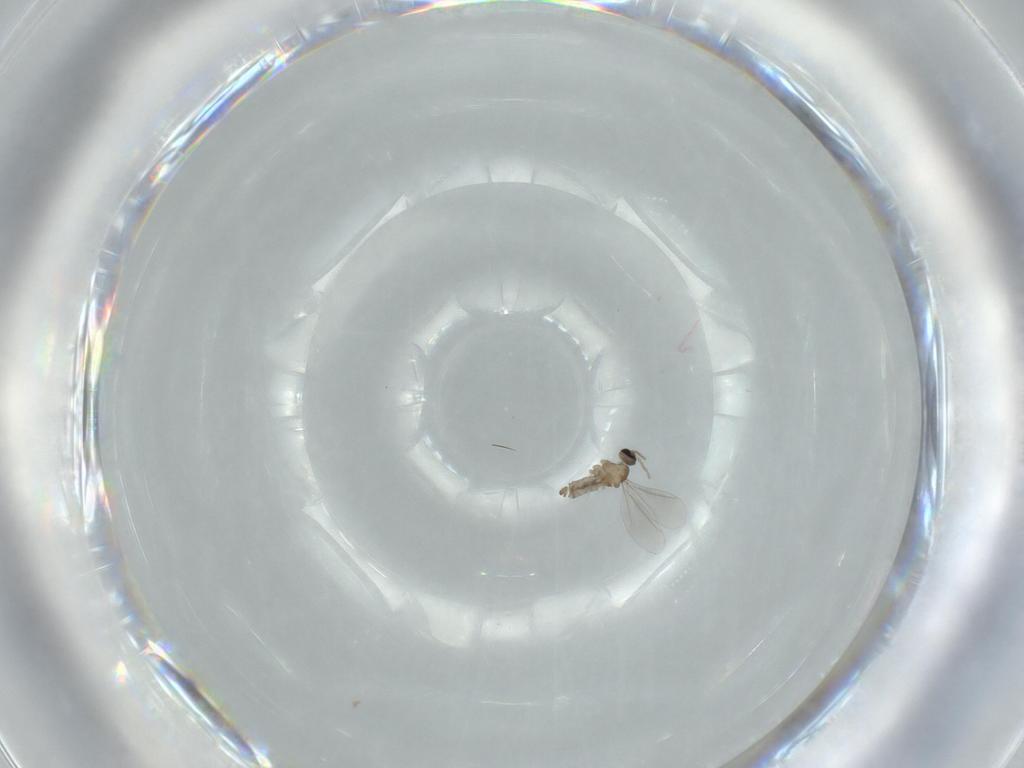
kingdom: Animalia
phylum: Arthropoda
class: Insecta
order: Diptera
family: Cecidomyiidae
